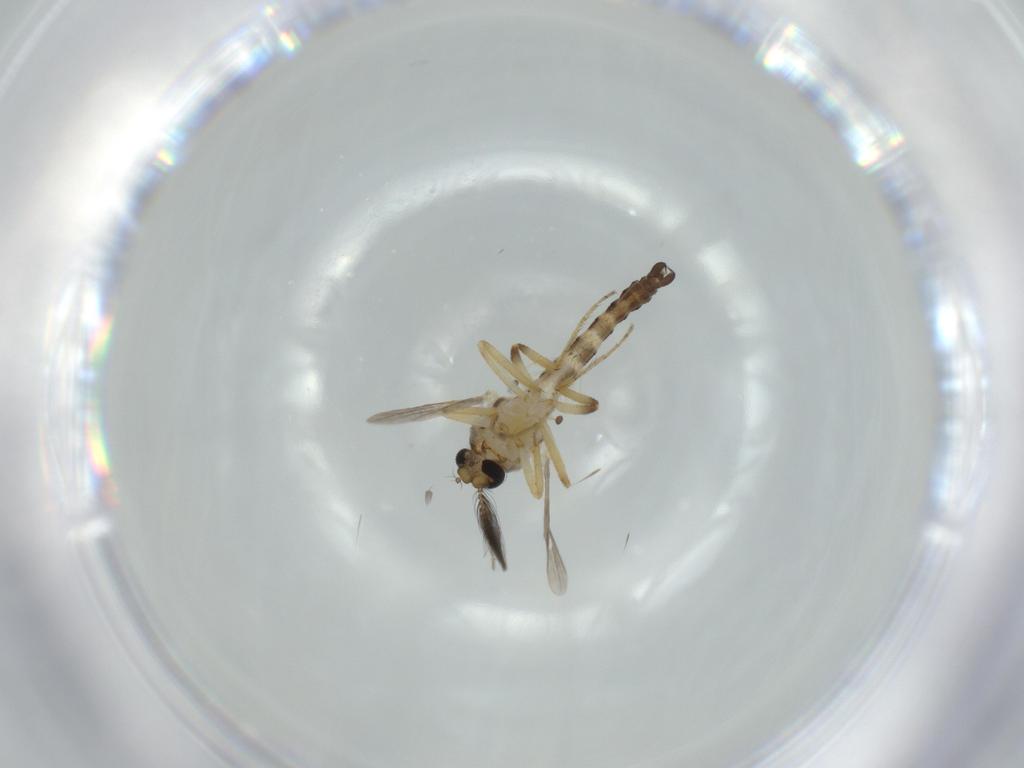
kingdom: Animalia
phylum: Arthropoda
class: Insecta
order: Diptera
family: Ceratopogonidae
